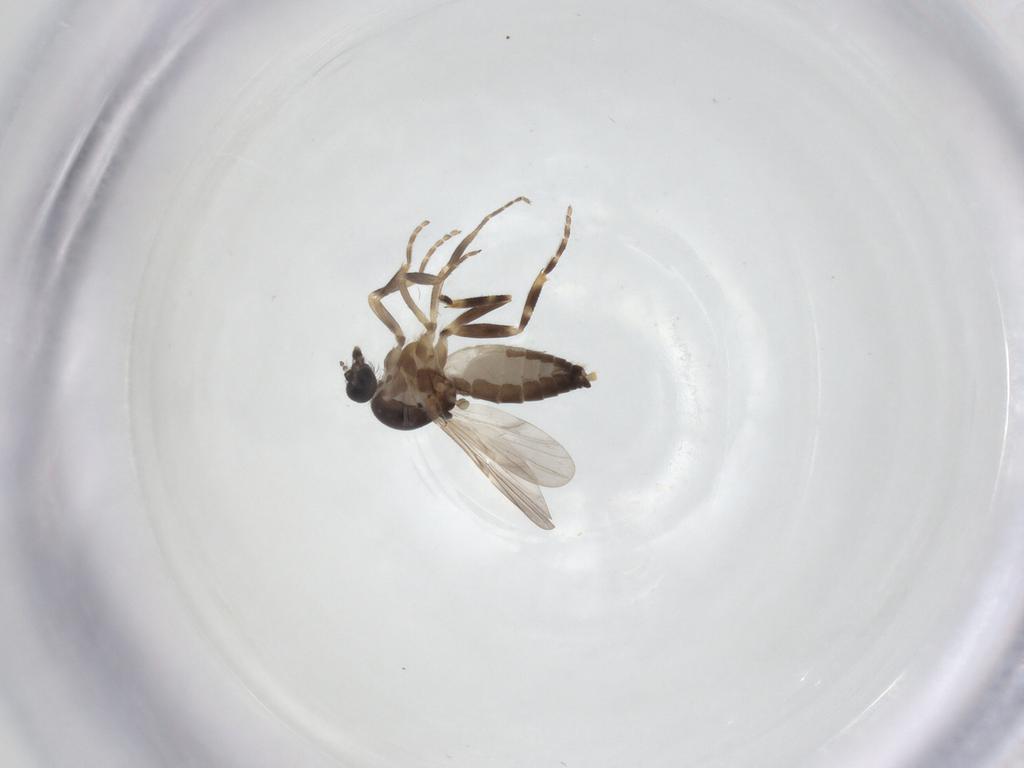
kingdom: Animalia
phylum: Arthropoda
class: Insecta
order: Diptera
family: Ceratopogonidae
